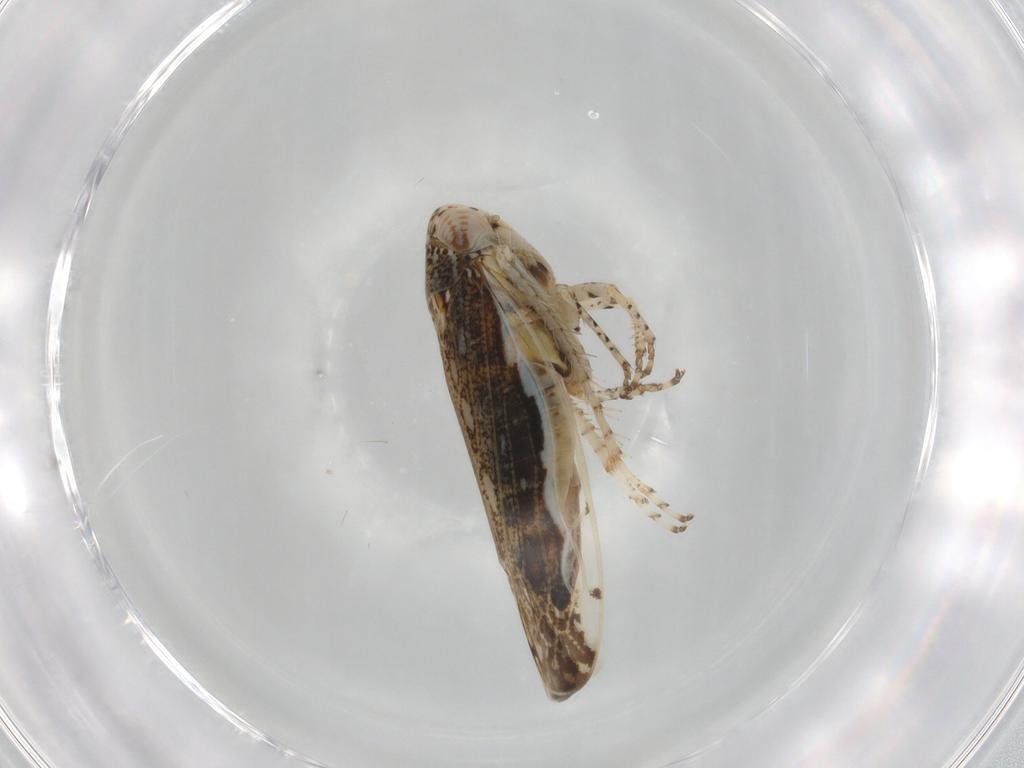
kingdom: Animalia
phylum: Arthropoda
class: Insecta
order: Hemiptera
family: Cicadellidae
